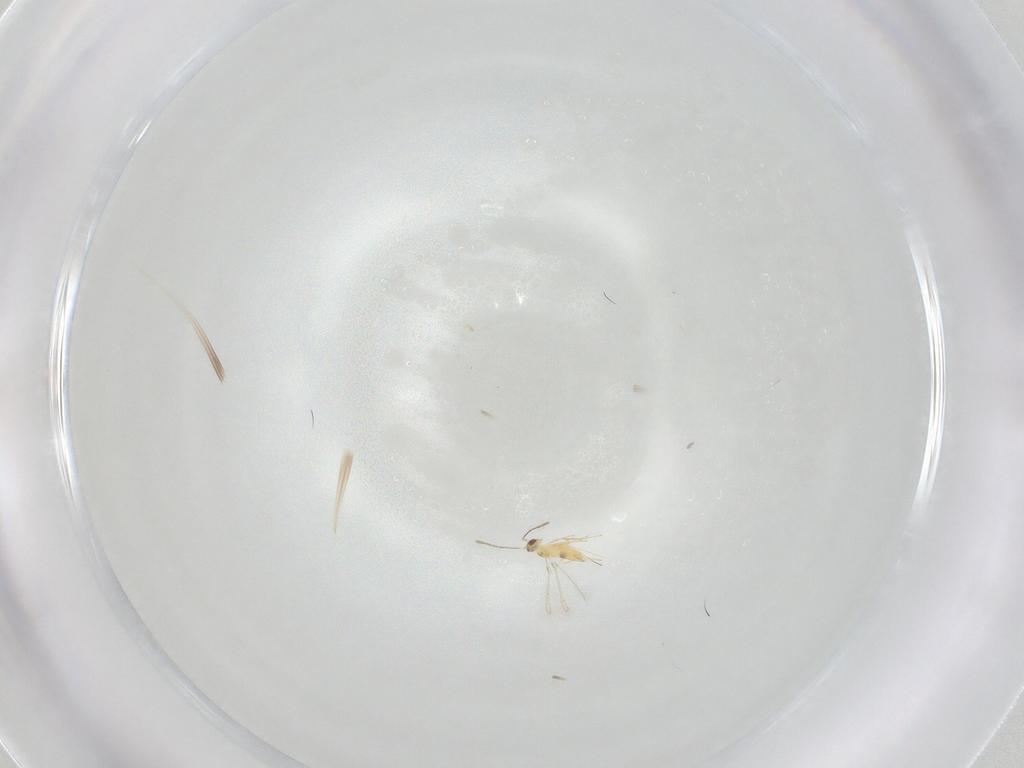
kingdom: Animalia
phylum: Arthropoda
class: Insecta
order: Hymenoptera
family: Mymaridae
